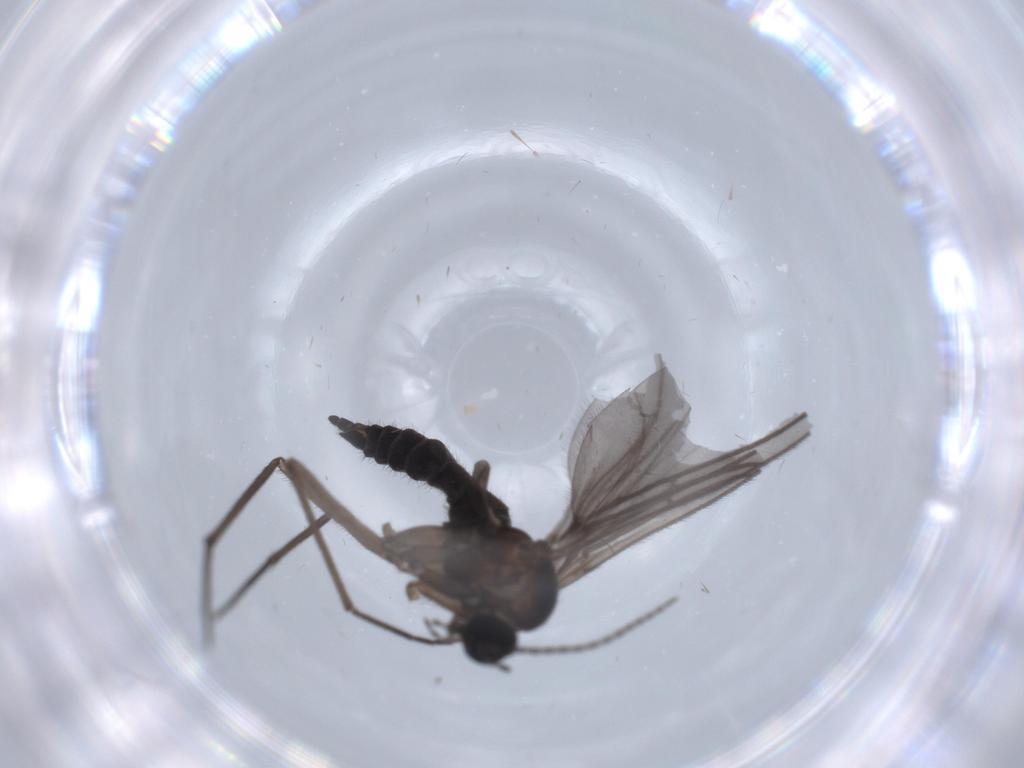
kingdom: Animalia
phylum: Arthropoda
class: Insecta
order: Diptera
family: Sciaridae
